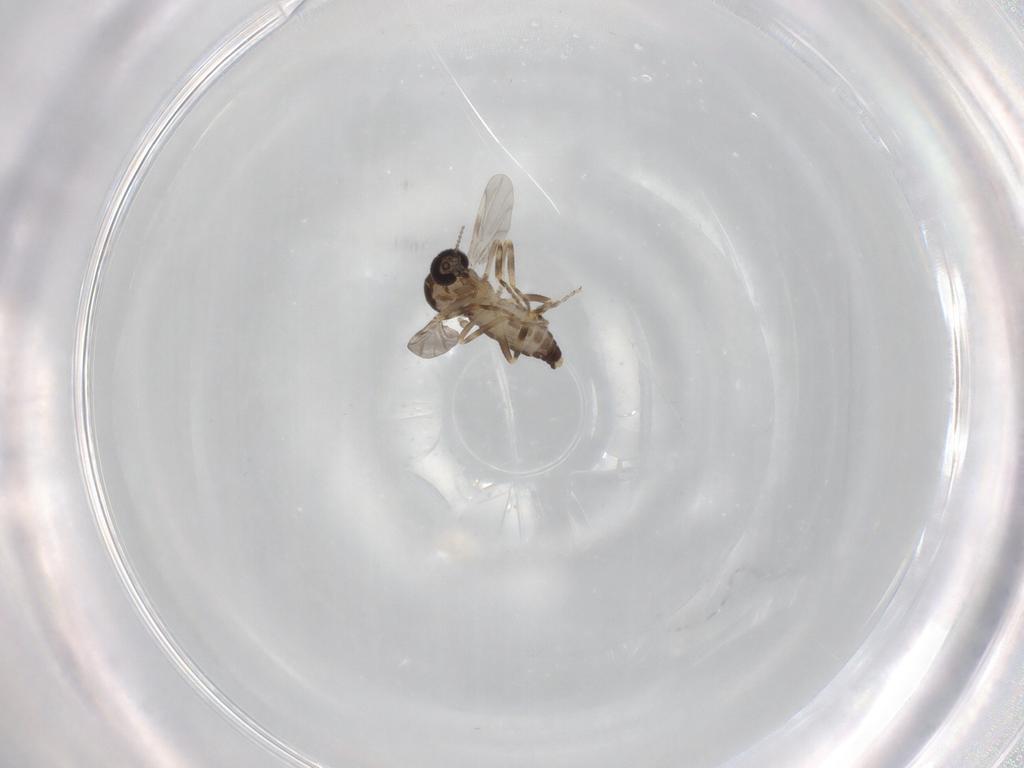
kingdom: Animalia
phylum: Arthropoda
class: Insecta
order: Diptera
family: Ceratopogonidae
